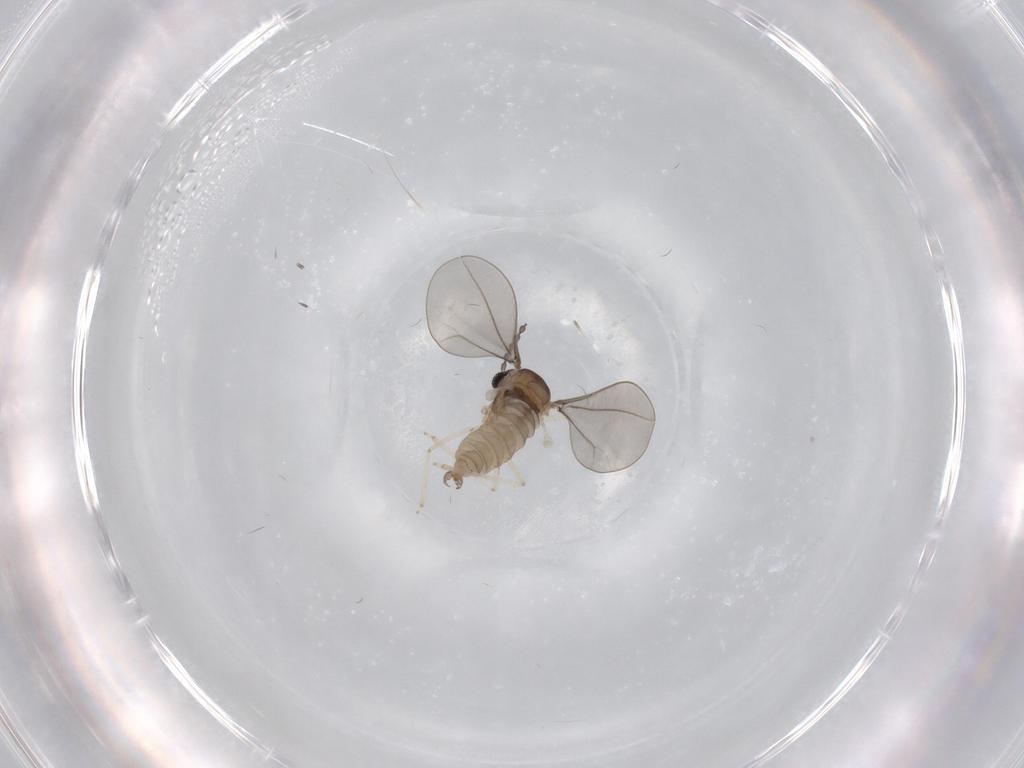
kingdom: Animalia
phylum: Arthropoda
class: Insecta
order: Diptera
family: Cecidomyiidae
